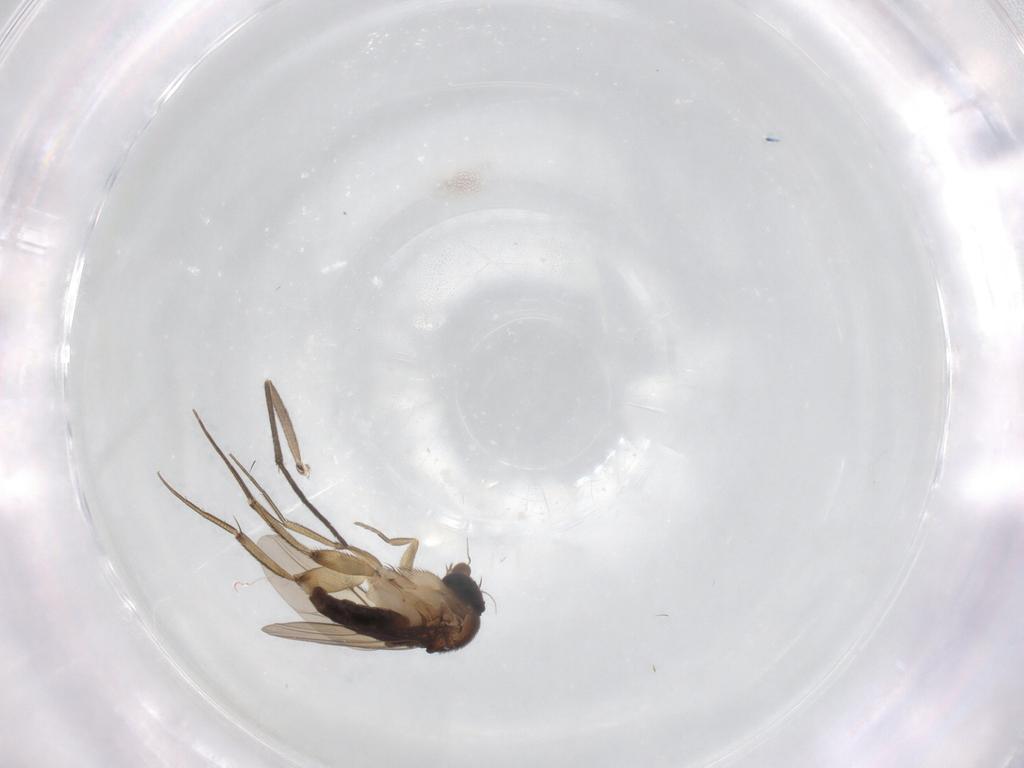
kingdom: Animalia
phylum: Arthropoda
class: Insecta
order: Diptera
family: Phoridae
